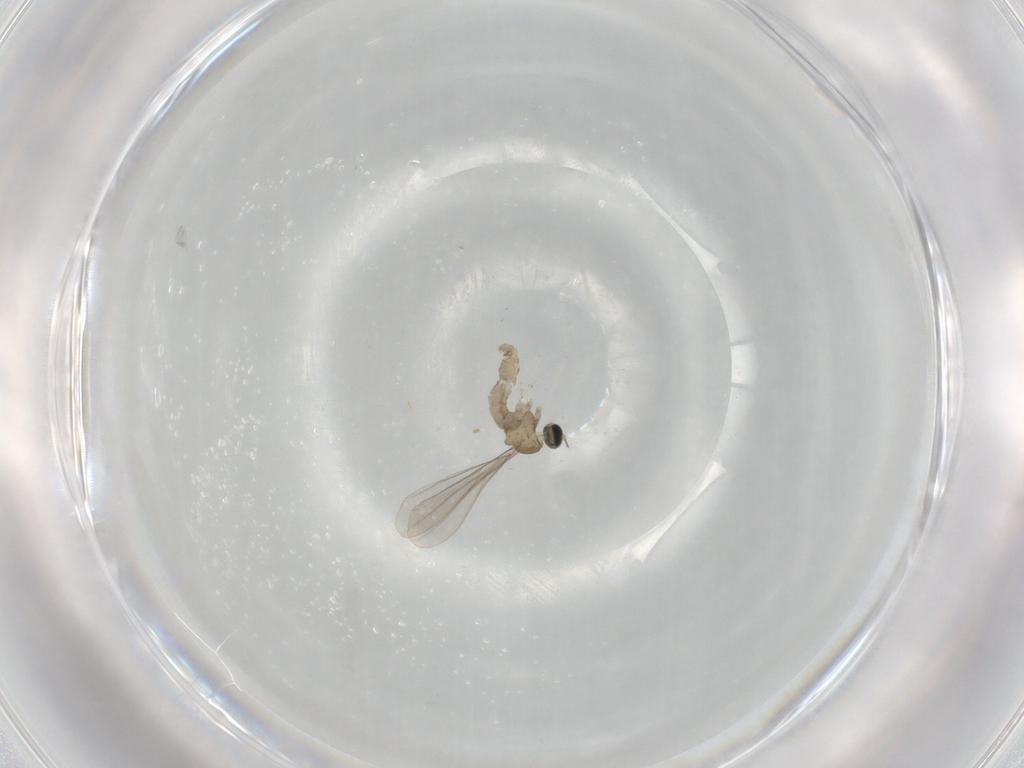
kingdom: Animalia
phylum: Arthropoda
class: Insecta
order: Diptera
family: Cecidomyiidae
